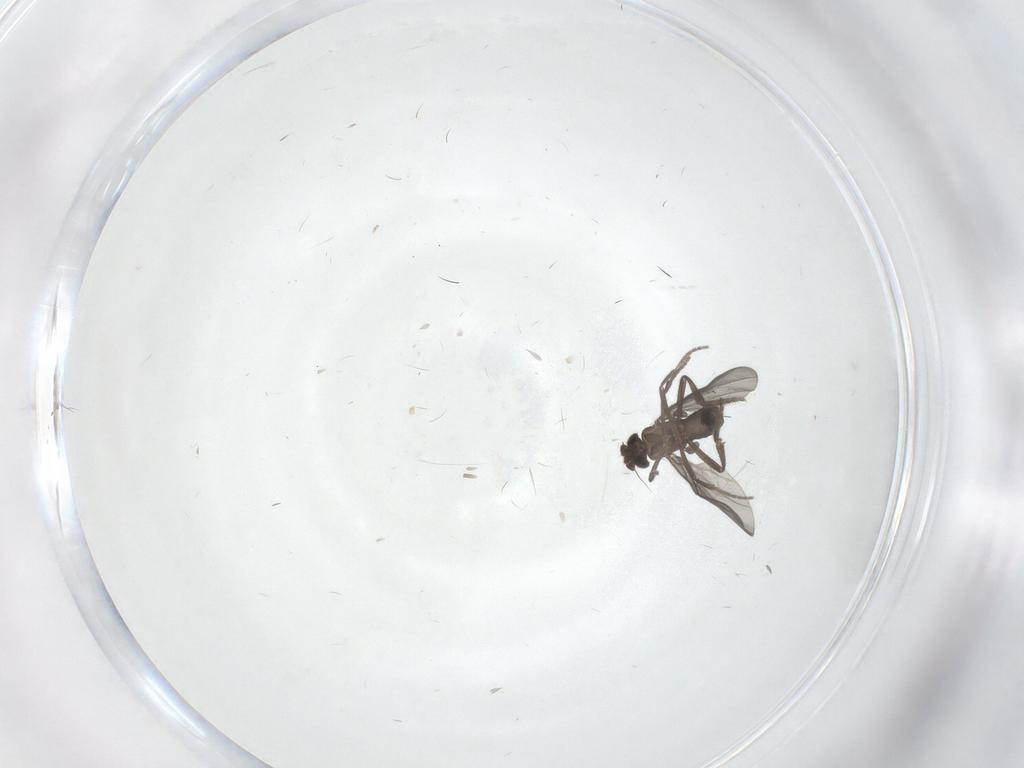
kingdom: Animalia
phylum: Arthropoda
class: Insecta
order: Diptera
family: Phoridae
